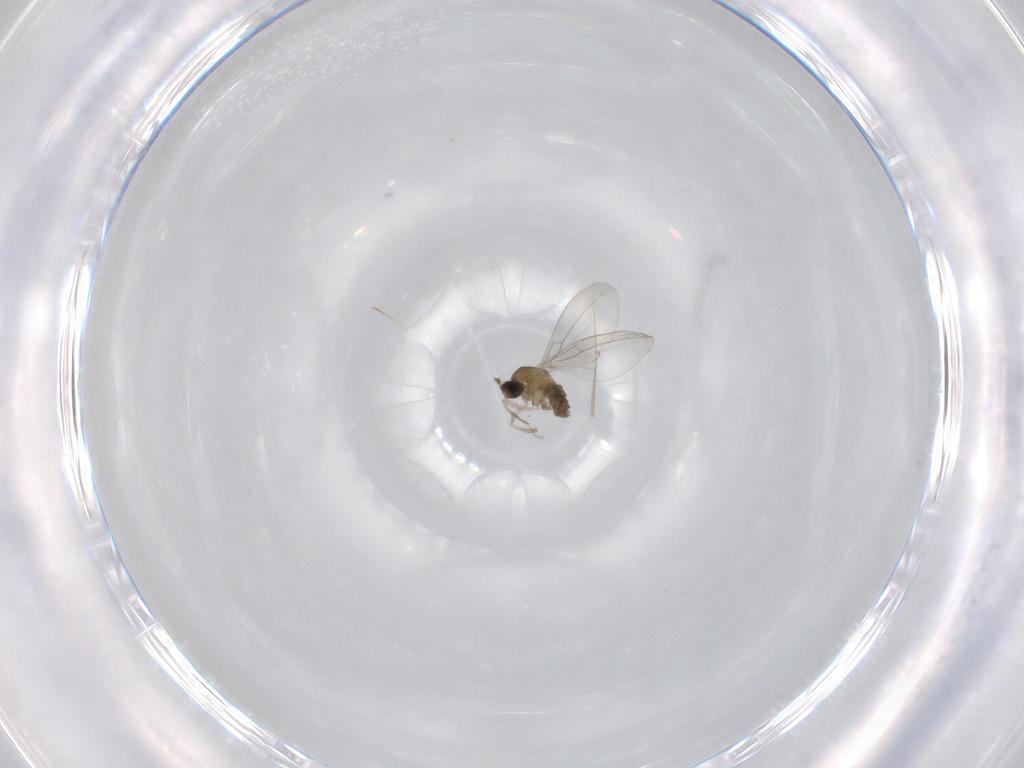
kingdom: Animalia
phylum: Arthropoda
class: Insecta
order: Diptera
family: Cecidomyiidae
